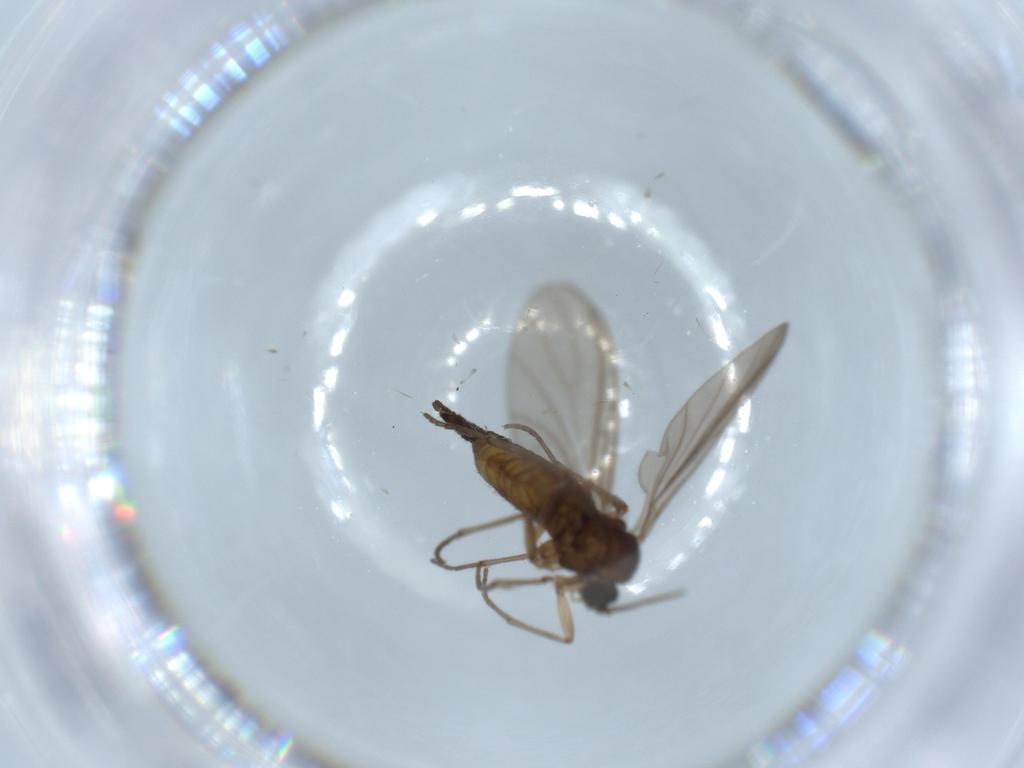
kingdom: Animalia
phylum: Arthropoda
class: Insecta
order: Diptera
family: Sciaridae
